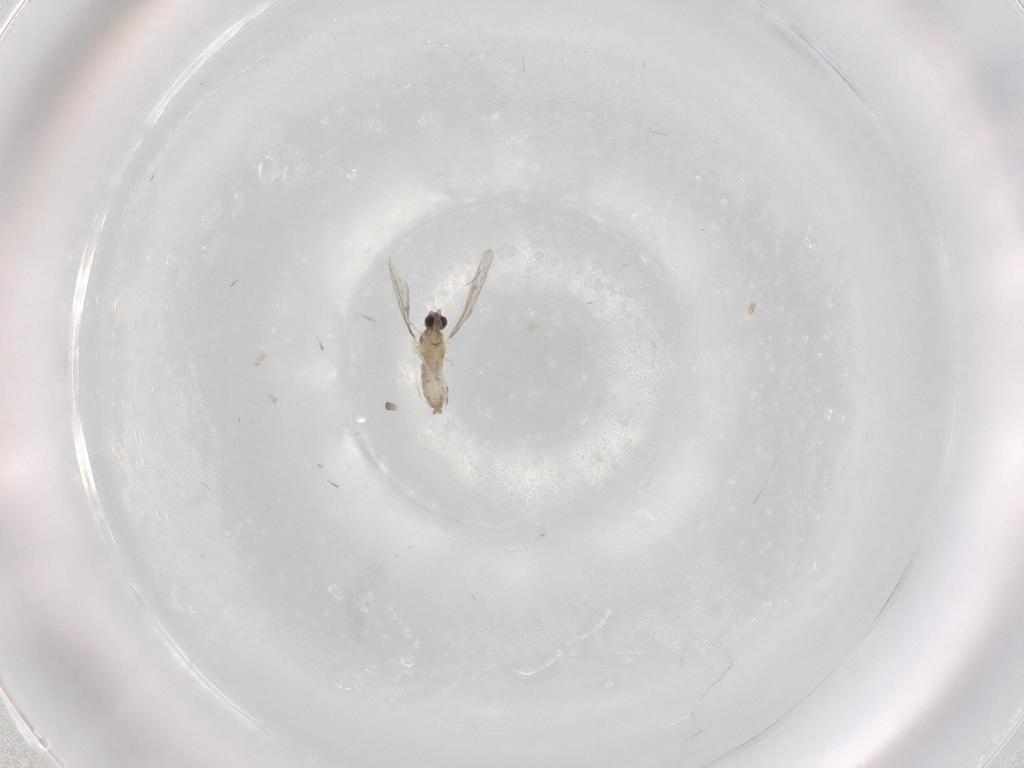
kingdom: Animalia
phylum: Arthropoda
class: Insecta
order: Diptera
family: Cecidomyiidae
